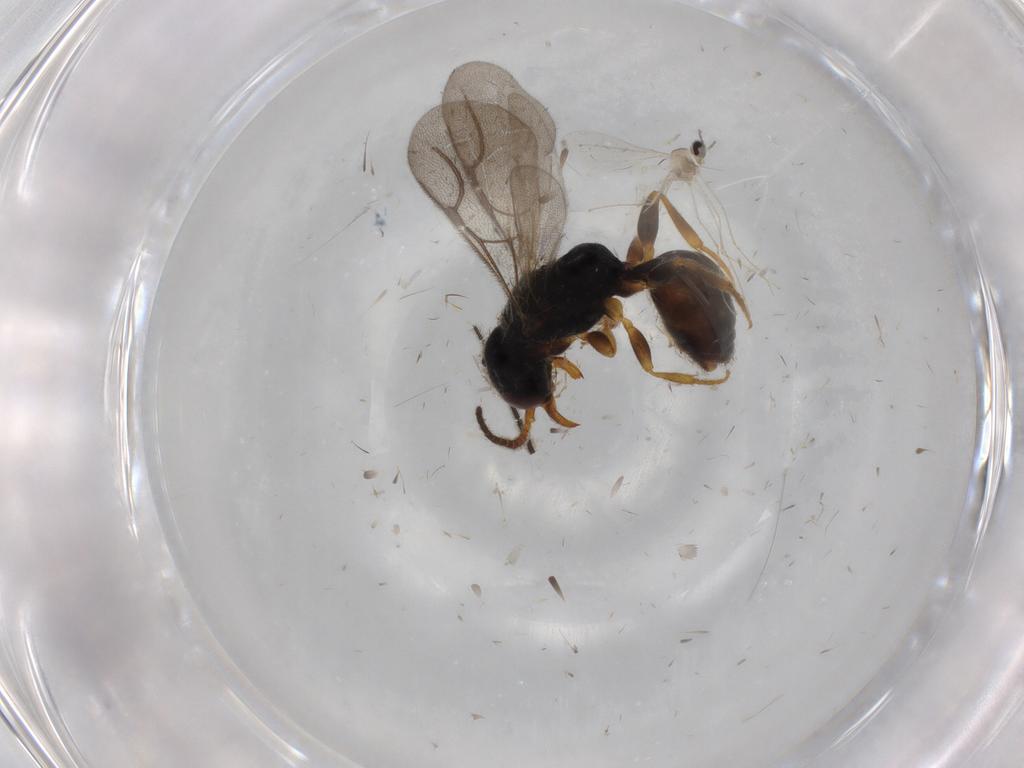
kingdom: Animalia
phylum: Arthropoda
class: Insecta
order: Hymenoptera
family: Bethylidae
